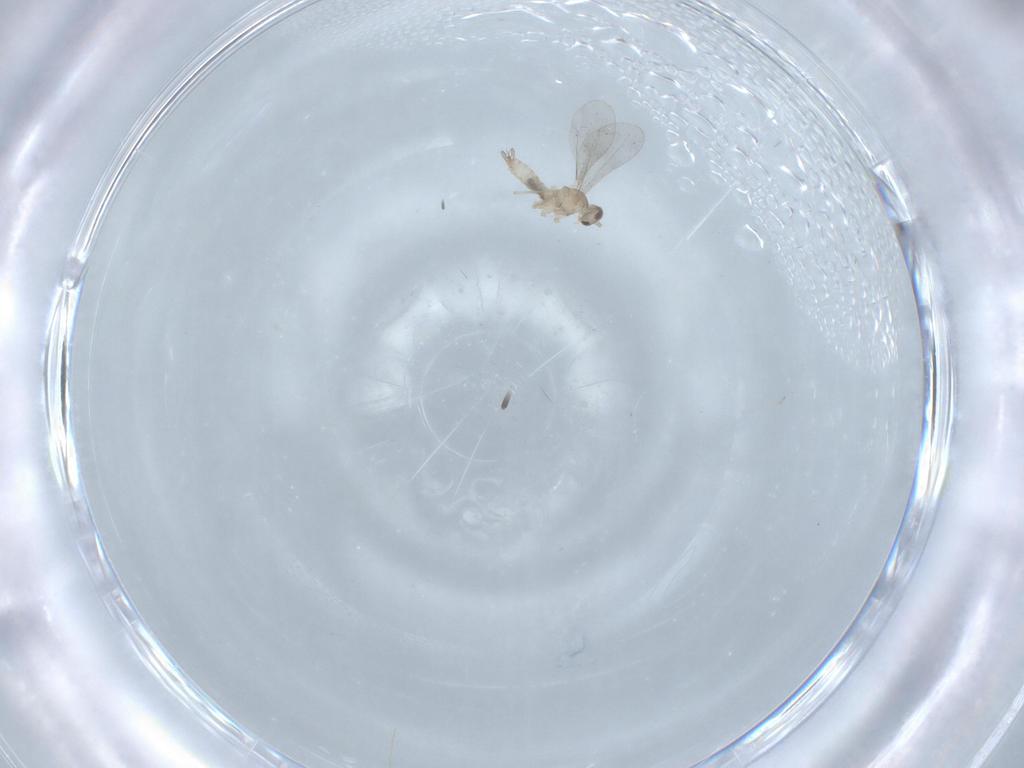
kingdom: Animalia
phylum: Arthropoda
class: Insecta
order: Diptera
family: Cecidomyiidae
